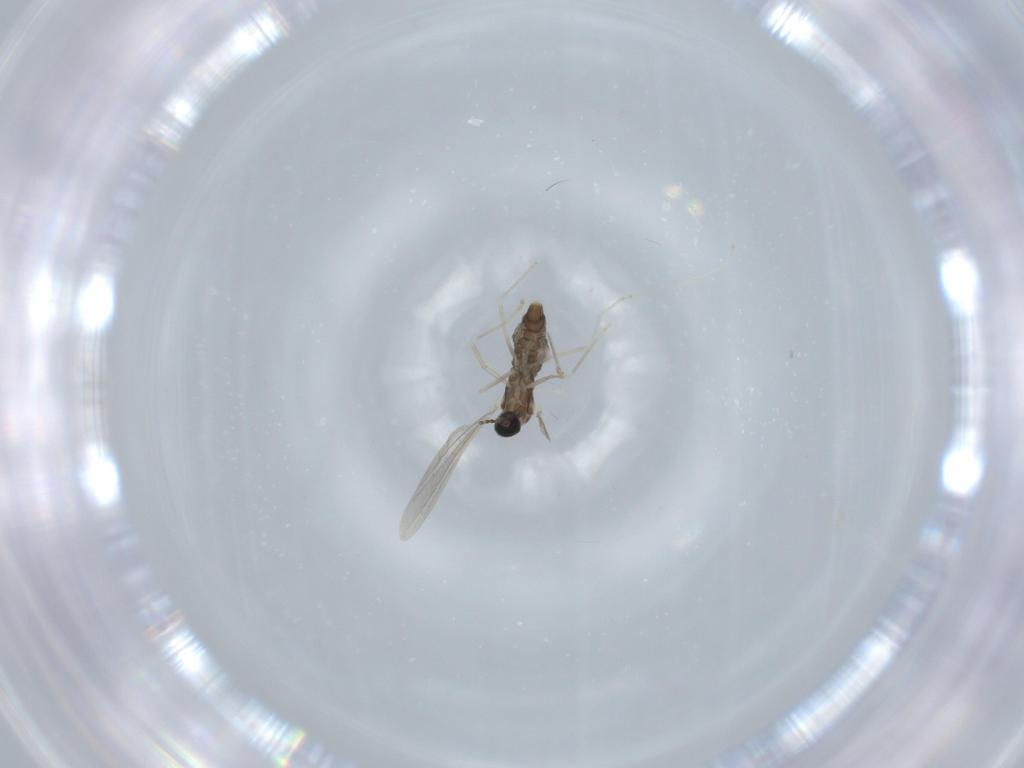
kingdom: Animalia
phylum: Arthropoda
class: Insecta
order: Diptera
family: Cecidomyiidae
